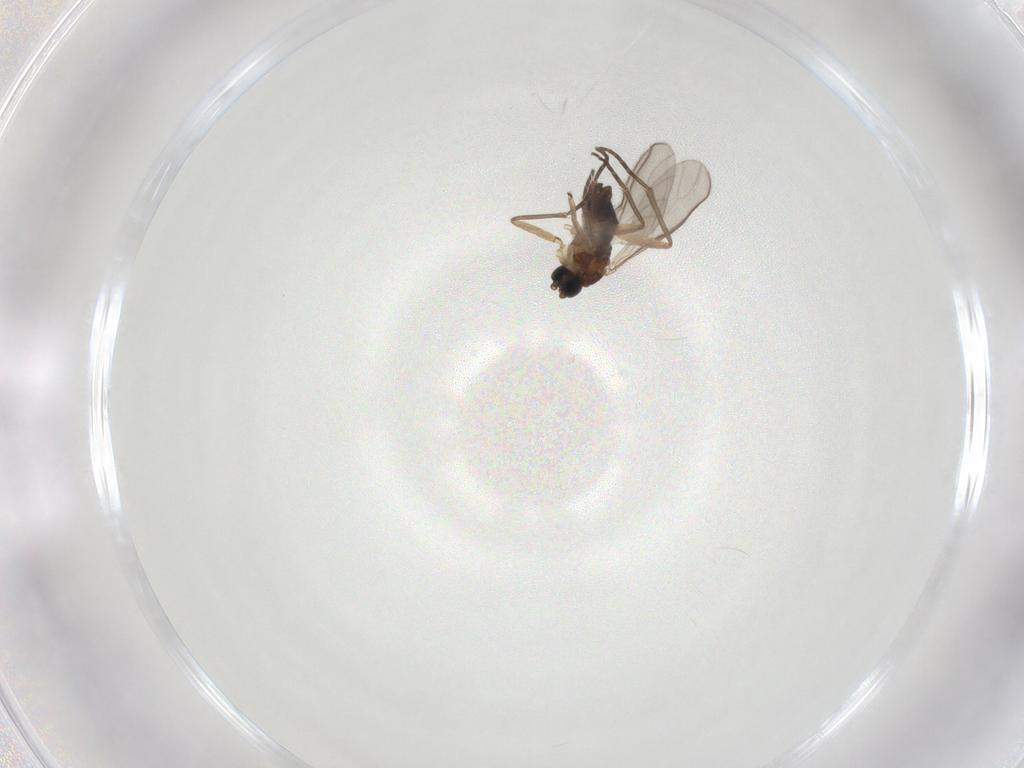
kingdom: Animalia
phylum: Arthropoda
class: Insecta
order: Diptera
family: Sciaridae
